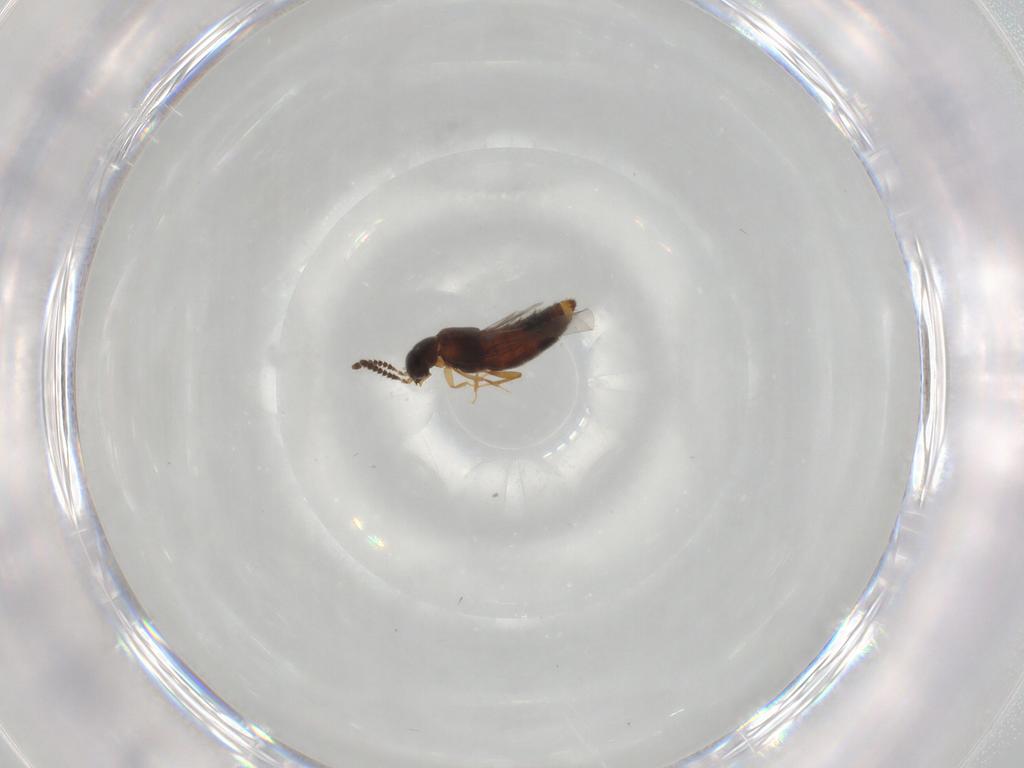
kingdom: Animalia
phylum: Arthropoda
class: Insecta
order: Coleoptera
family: Staphylinidae
